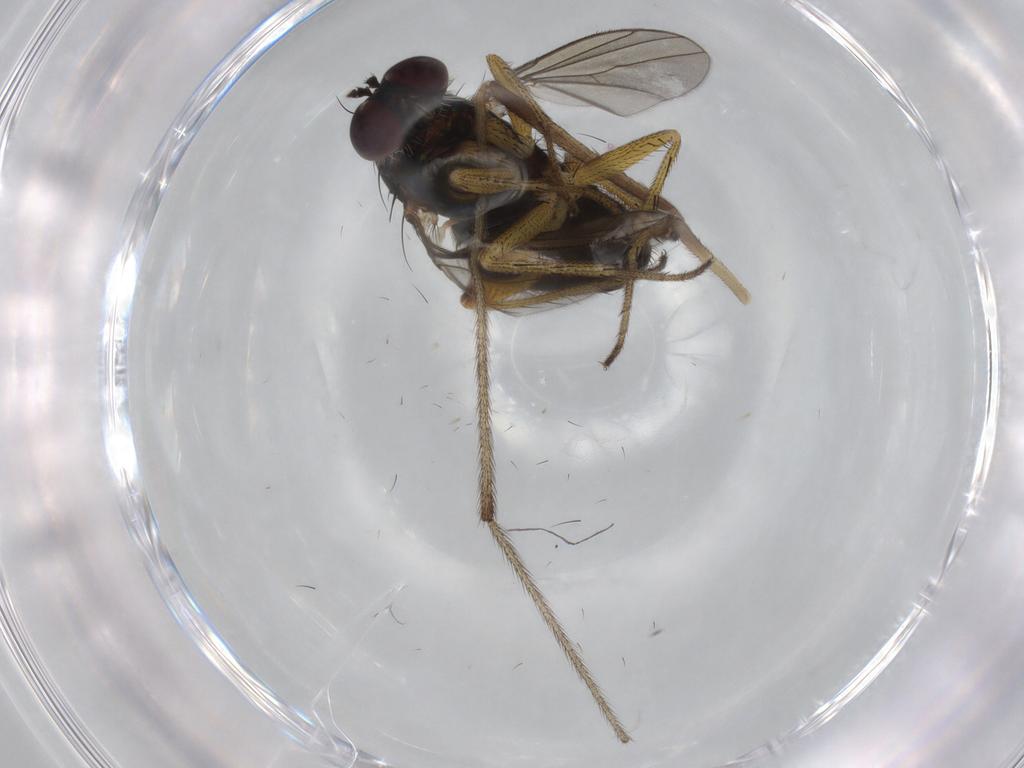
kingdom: Animalia
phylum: Arthropoda
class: Insecta
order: Diptera
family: Dolichopodidae
